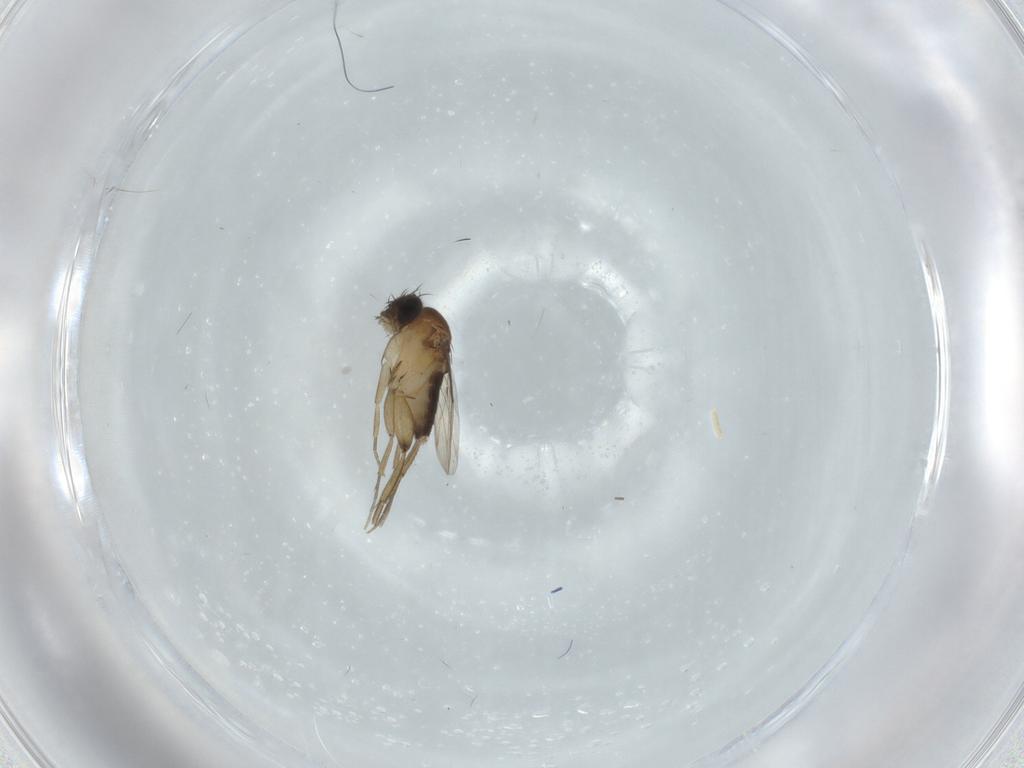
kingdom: Animalia
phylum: Arthropoda
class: Insecta
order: Diptera
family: Phoridae
